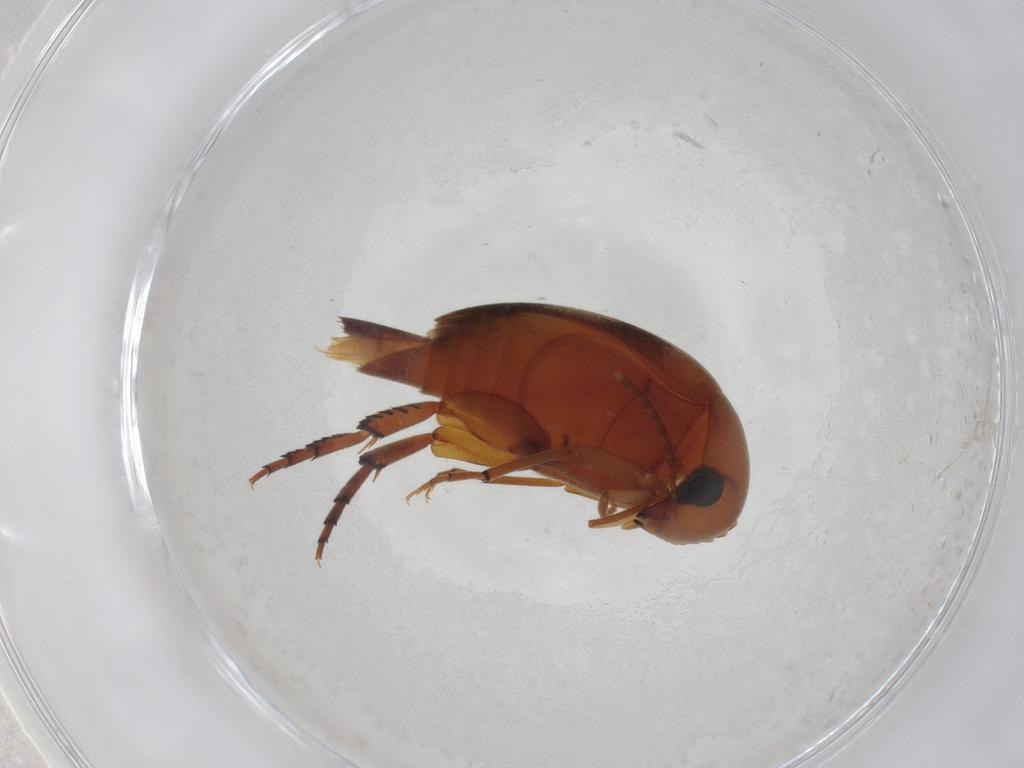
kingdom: Animalia
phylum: Arthropoda
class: Insecta
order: Coleoptera
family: Mordellidae
